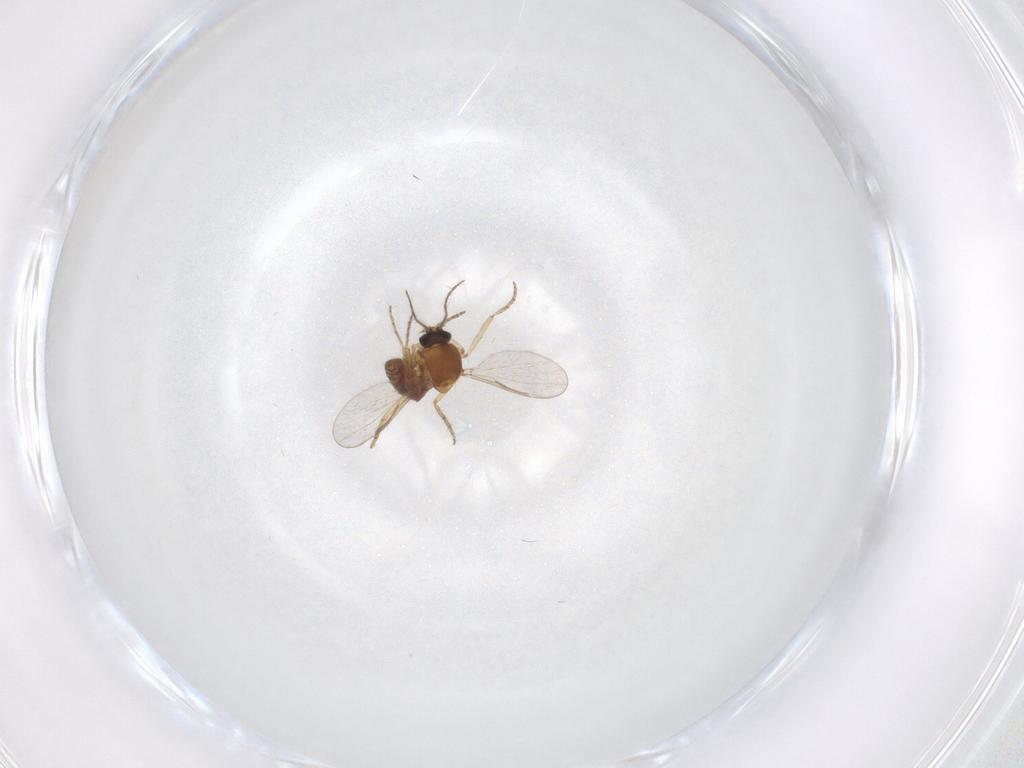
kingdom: Animalia
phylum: Arthropoda
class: Insecta
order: Diptera
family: Ceratopogonidae
